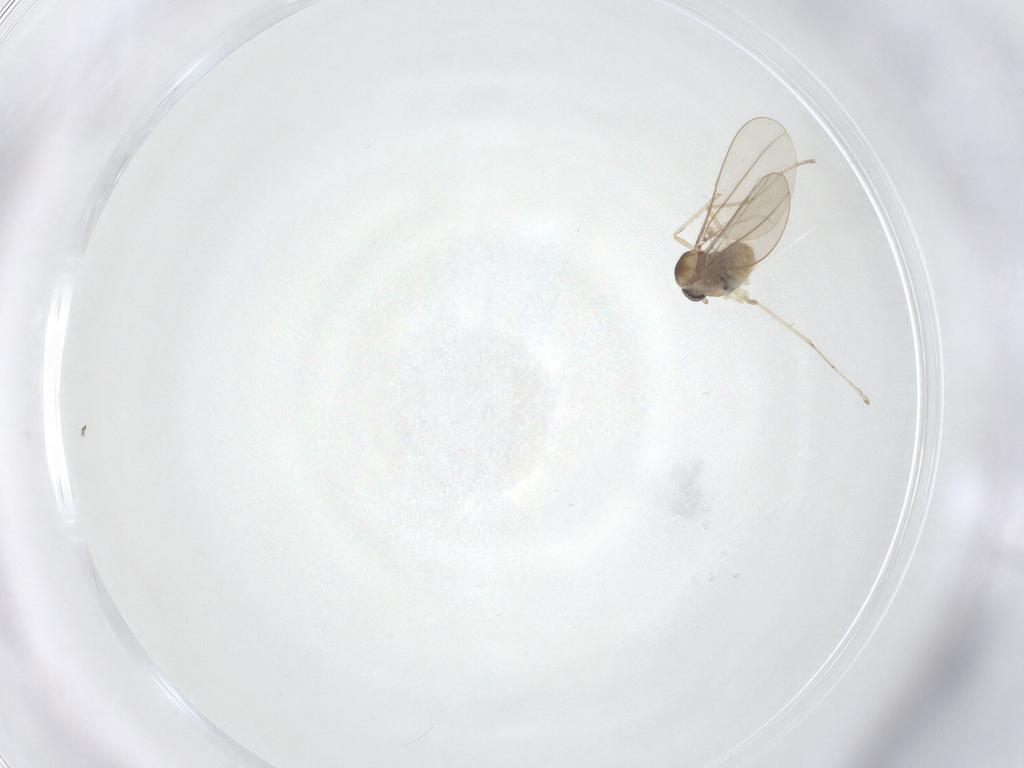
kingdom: Animalia
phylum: Arthropoda
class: Insecta
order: Diptera
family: Cecidomyiidae
